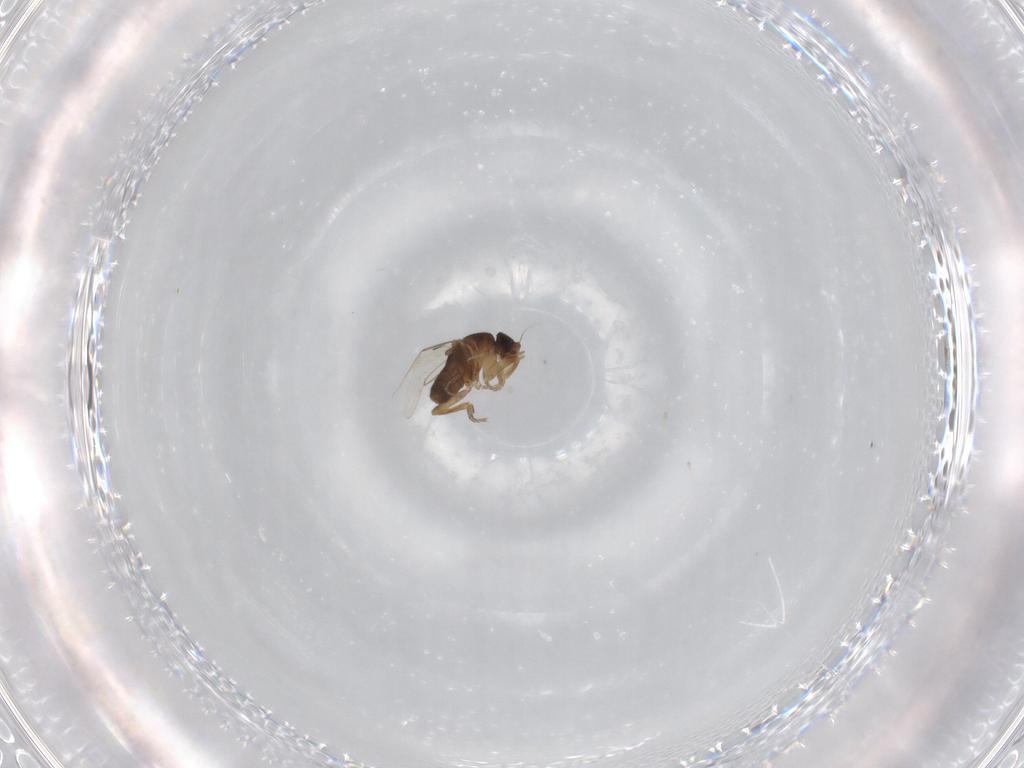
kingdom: Animalia
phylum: Arthropoda
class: Insecta
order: Diptera
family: Phoridae
